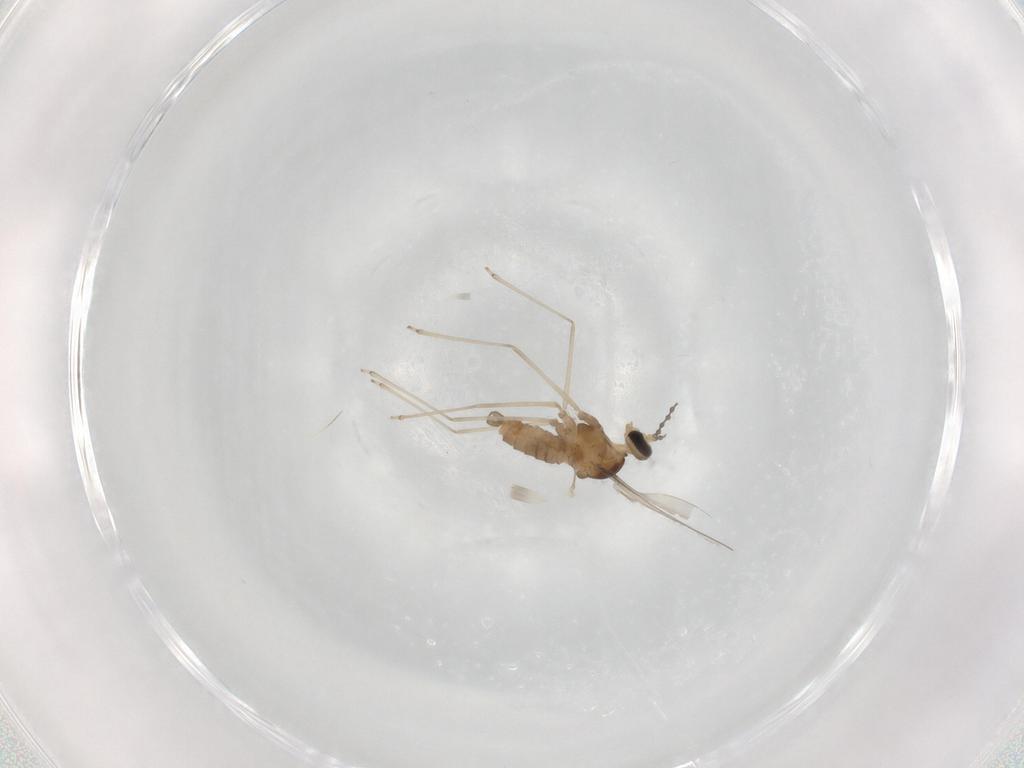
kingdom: Animalia
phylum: Arthropoda
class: Insecta
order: Diptera
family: Cecidomyiidae
